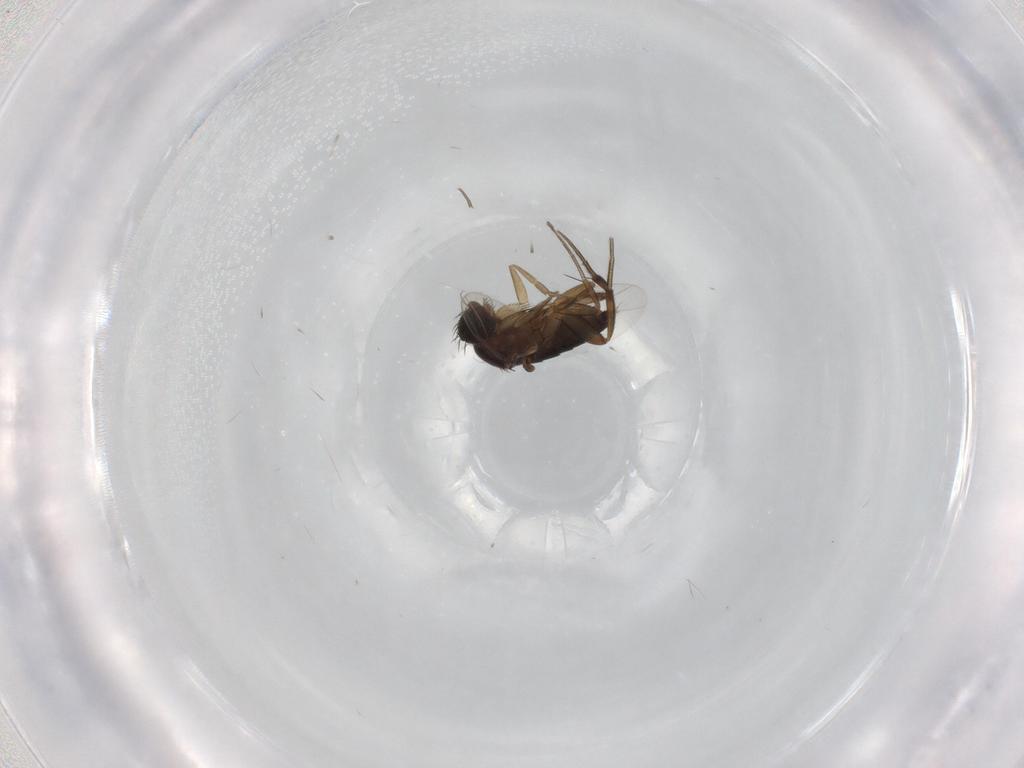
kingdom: Animalia
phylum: Arthropoda
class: Insecta
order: Diptera
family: Phoridae
